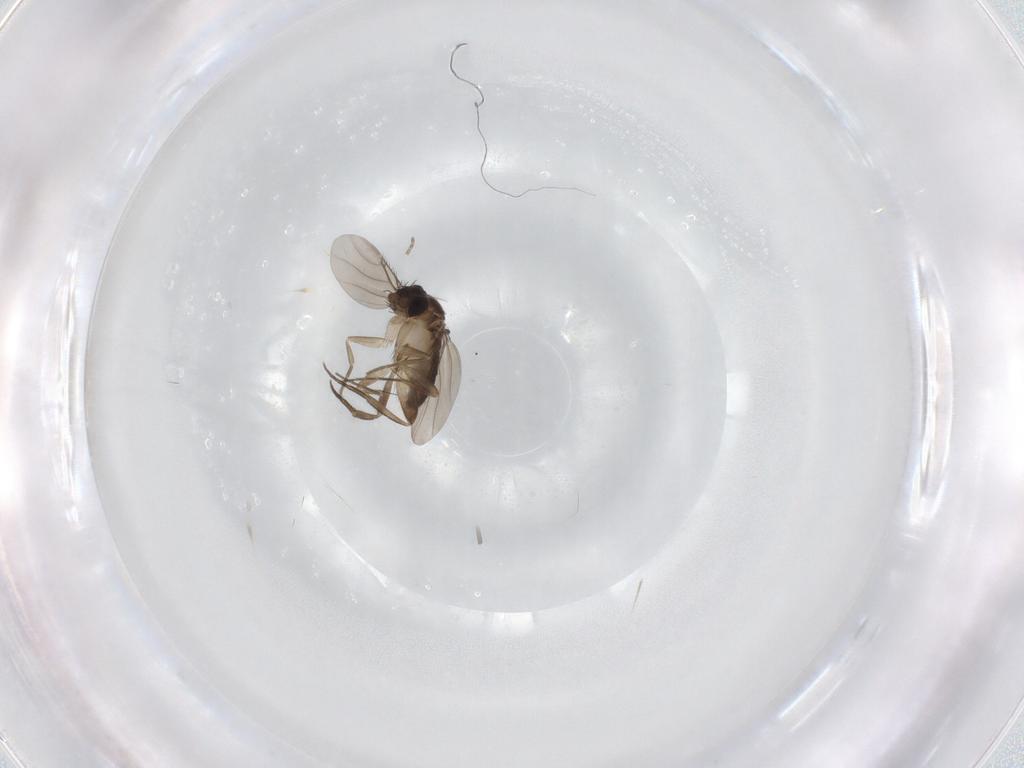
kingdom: Animalia
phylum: Arthropoda
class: Insecta
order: Diptera
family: Phoridae
